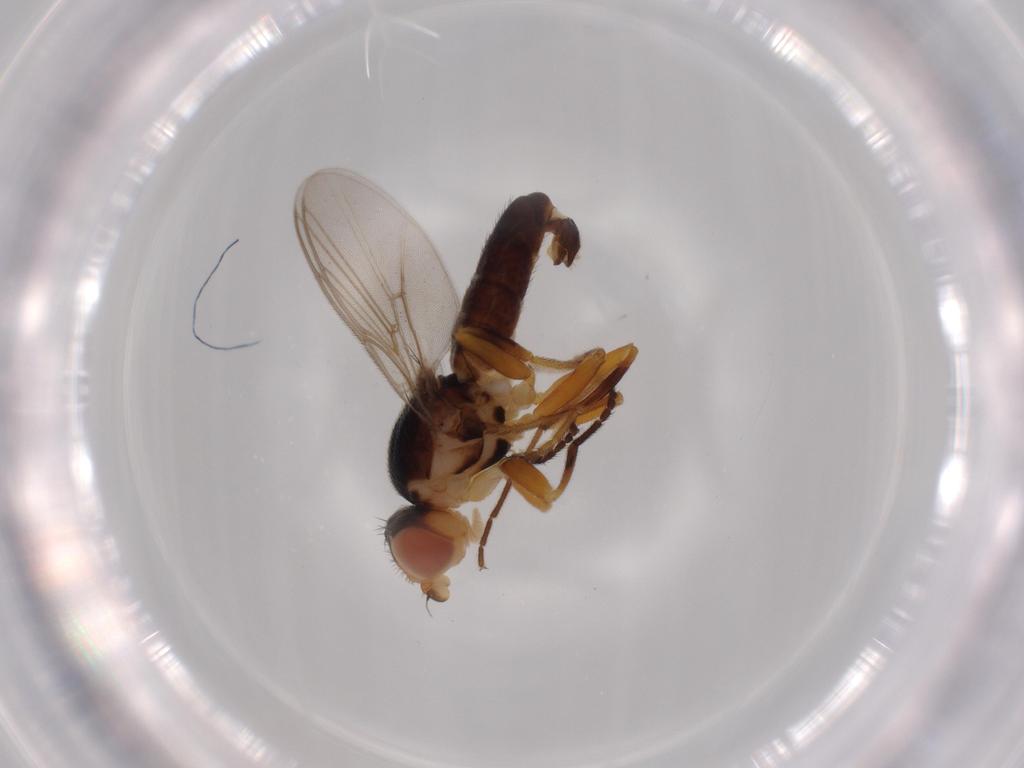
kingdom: Animalia
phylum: Arthropoda
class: Insecta
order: Diptera
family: Chloropidae
